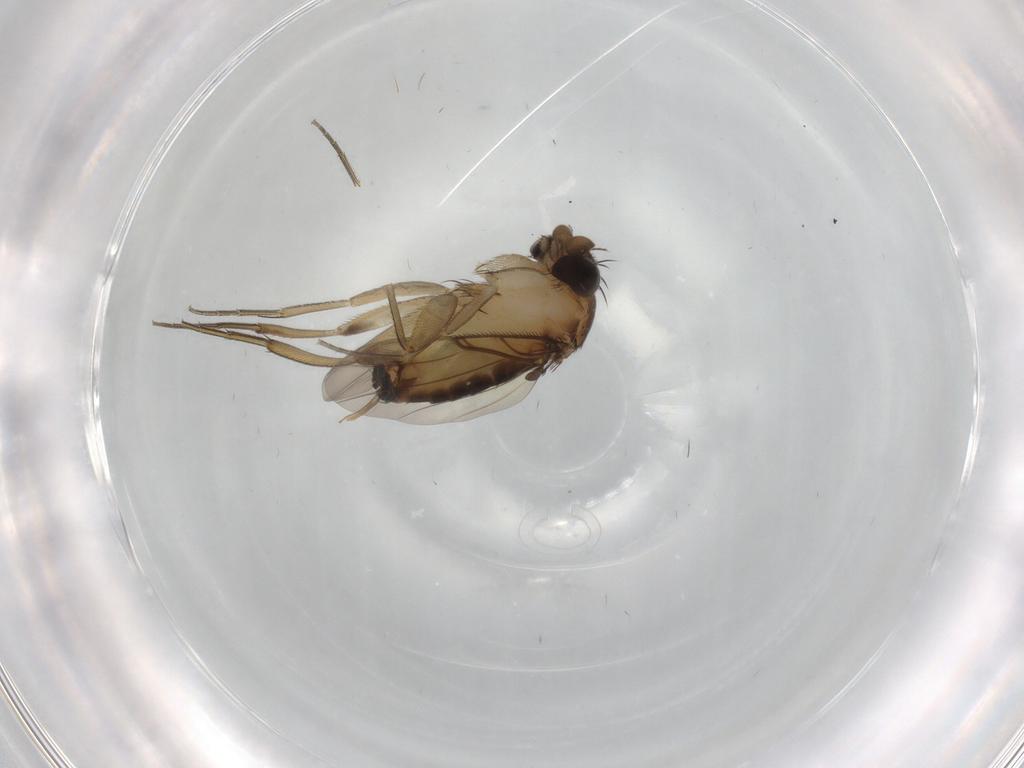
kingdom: Animalia
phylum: Arthropoda
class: Insecta
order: Diptera
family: Phoridae
